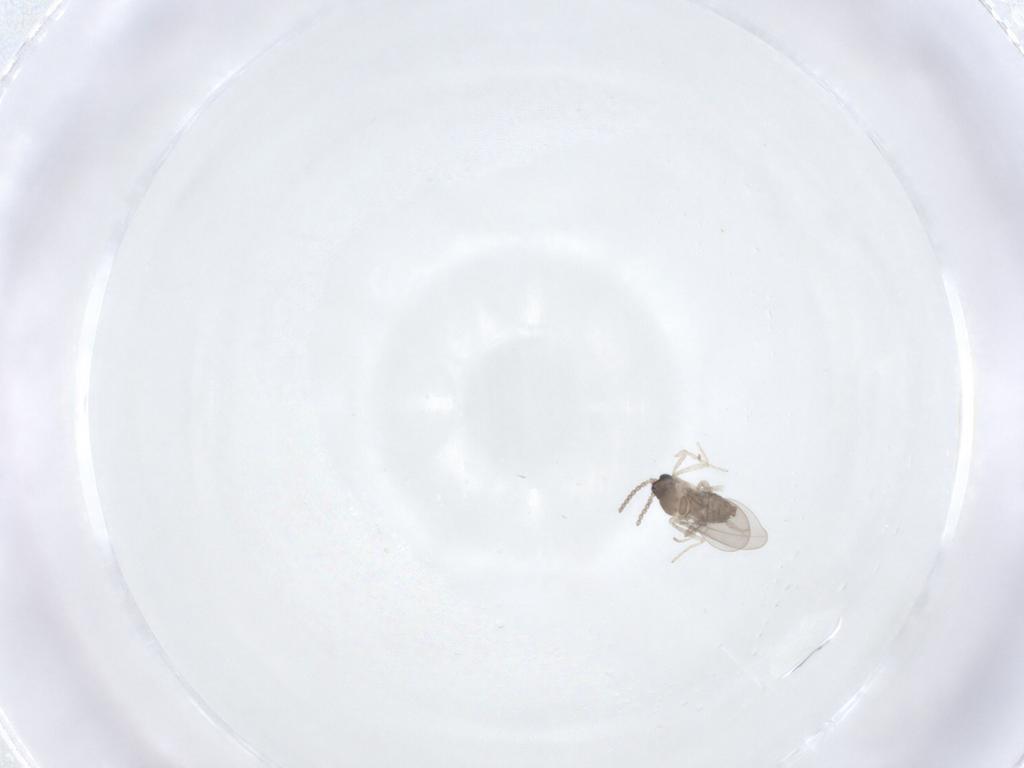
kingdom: Animalia
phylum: Arthropoda
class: Insecta
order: Diptera
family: Cecidomyiidae
